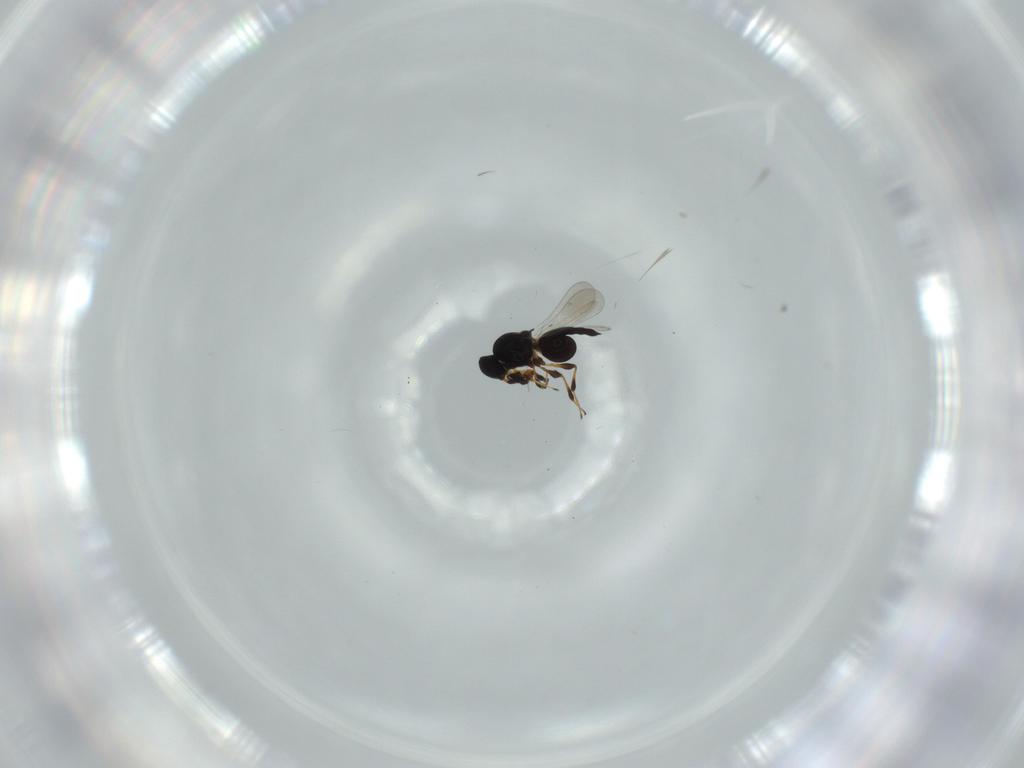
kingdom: Animalia
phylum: Arthropoda
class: Insecta
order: Hymenoptera
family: Platygastridae
